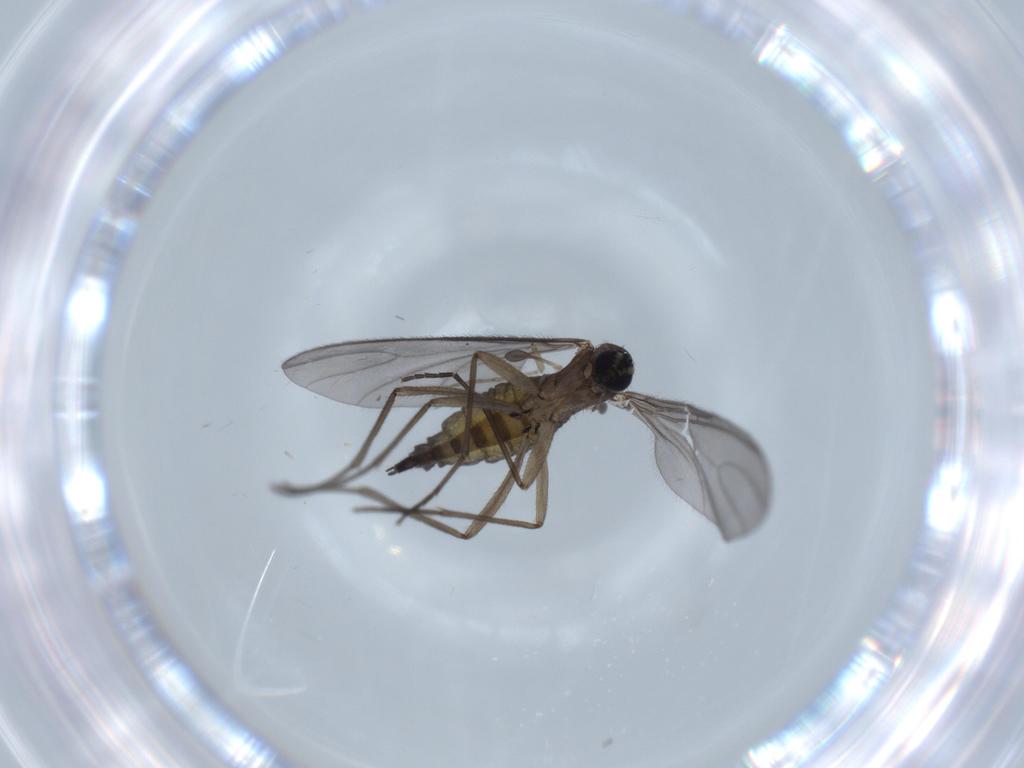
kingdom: Animalia
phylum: Arthropoda
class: Insecta
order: Diptera
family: Sciaridae
